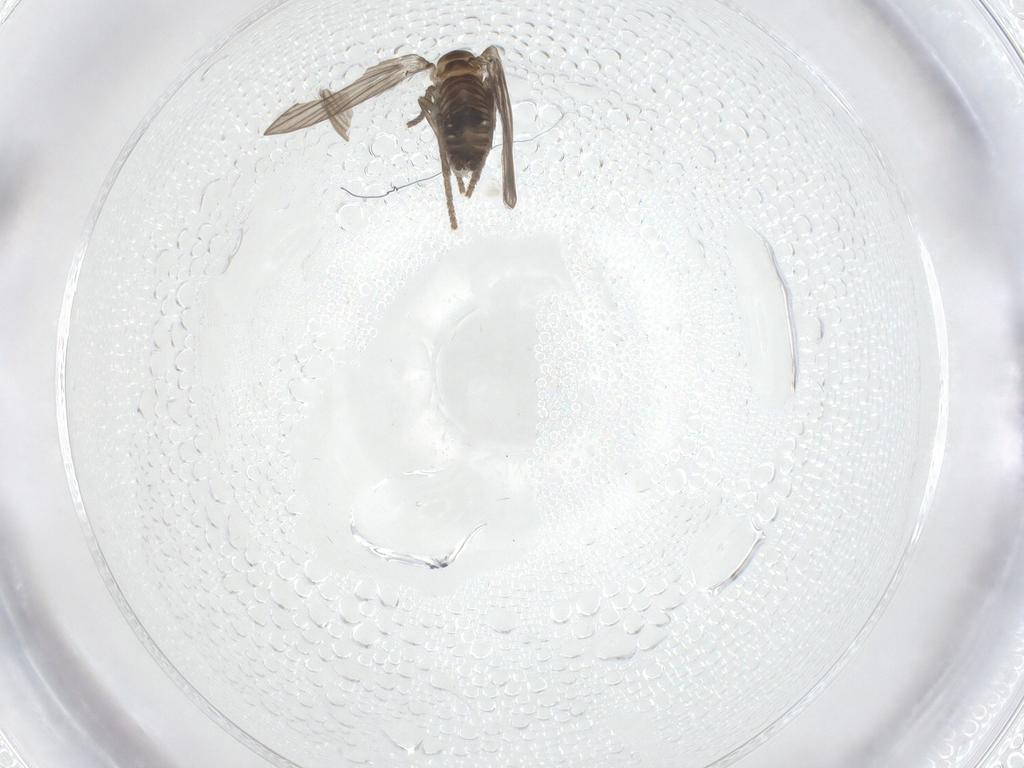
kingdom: Animalia
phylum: Arthropoda
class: Insecta
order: Diptera
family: Psychodidae
